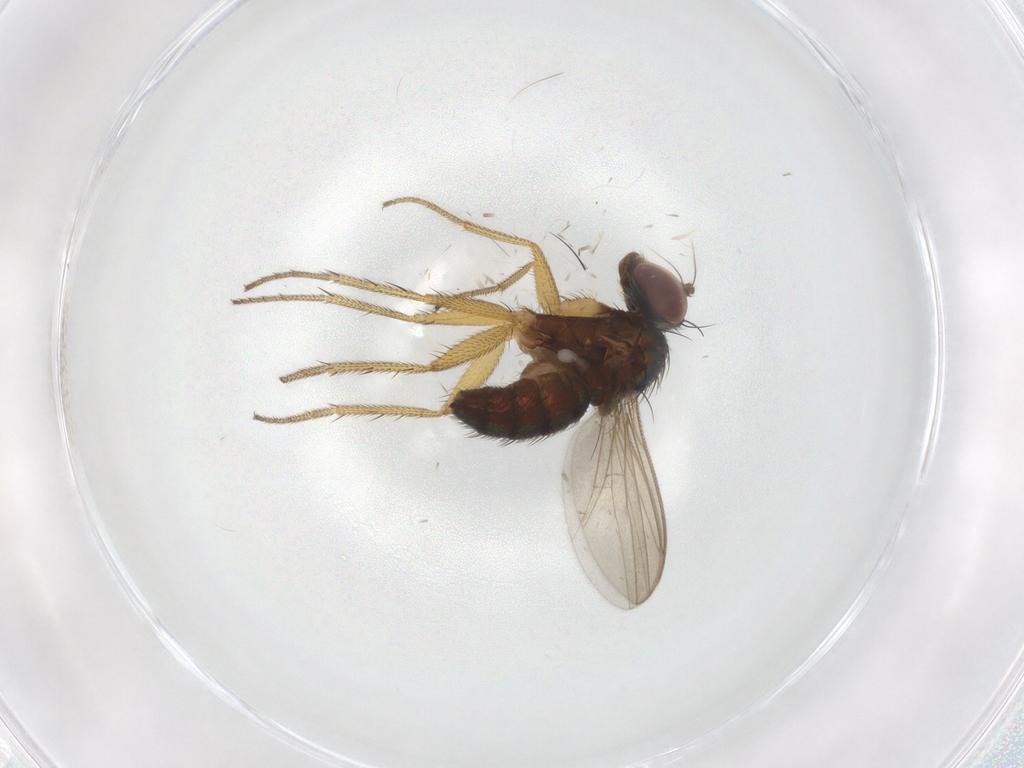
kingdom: Animalia
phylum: Arthropoda
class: Insecta
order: Diptera
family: Dolichopodidae
